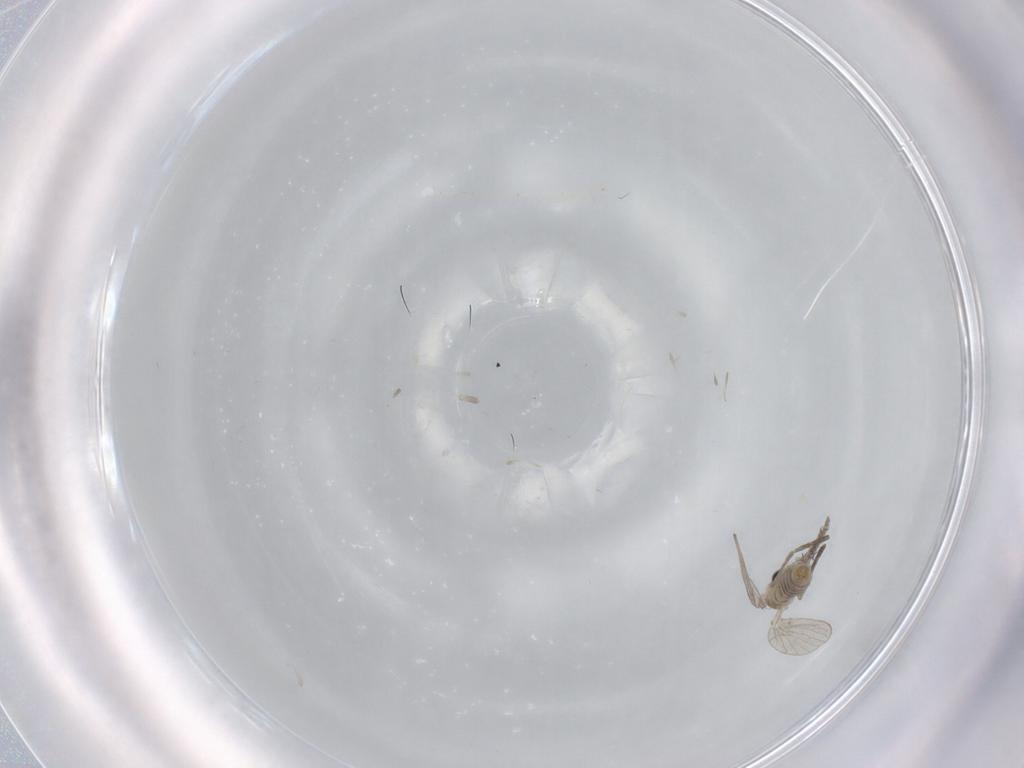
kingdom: Animalia
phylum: Arthropoda
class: Insecta
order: Diptera
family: Psychodidae
